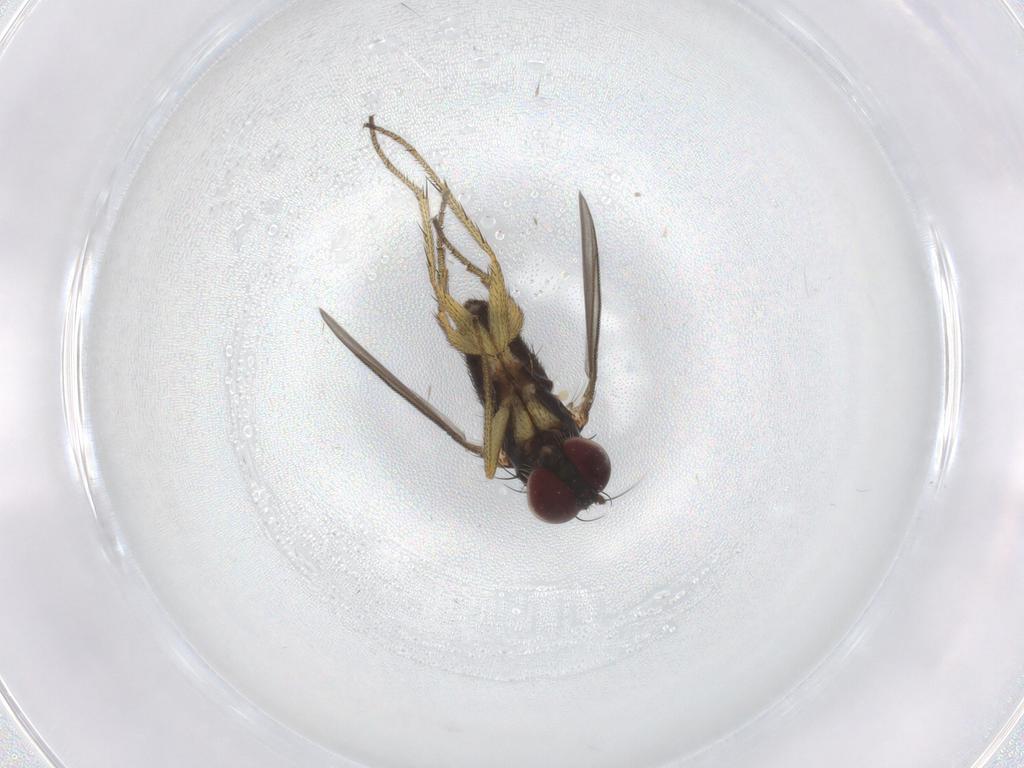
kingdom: Animalia
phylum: Arthropoda
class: Insecta
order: Diptera
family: Dolichopodidae
